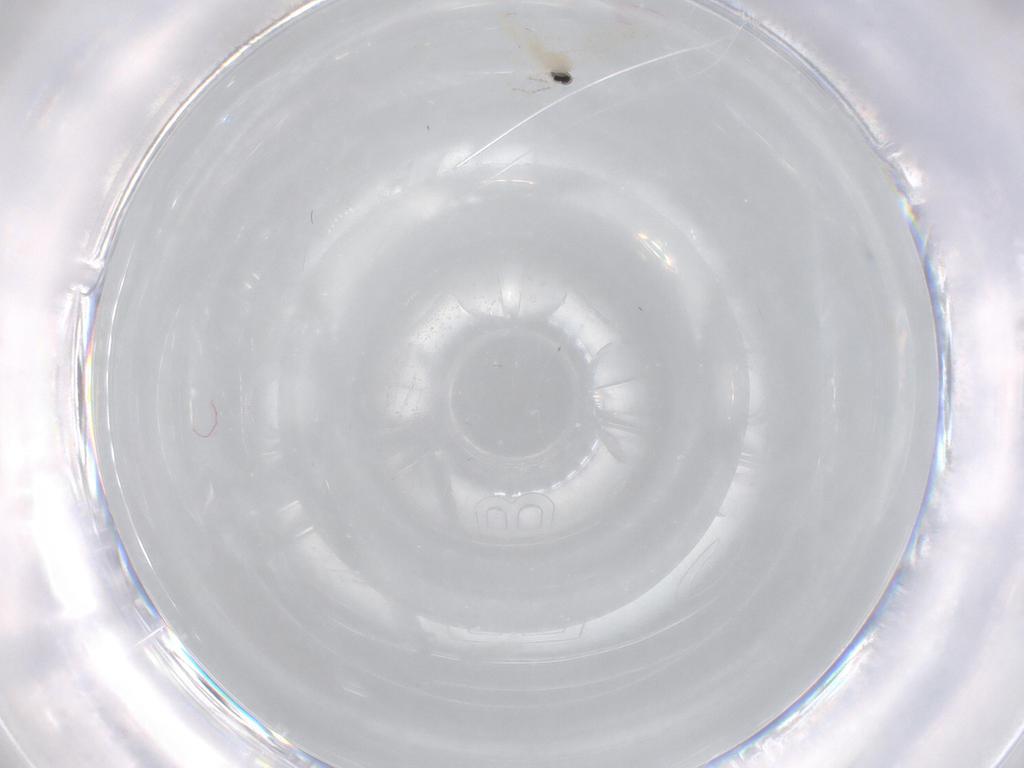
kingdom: Animalia
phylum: Arthropoda
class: Insecta
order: Diptera
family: Cecidomyiidae
